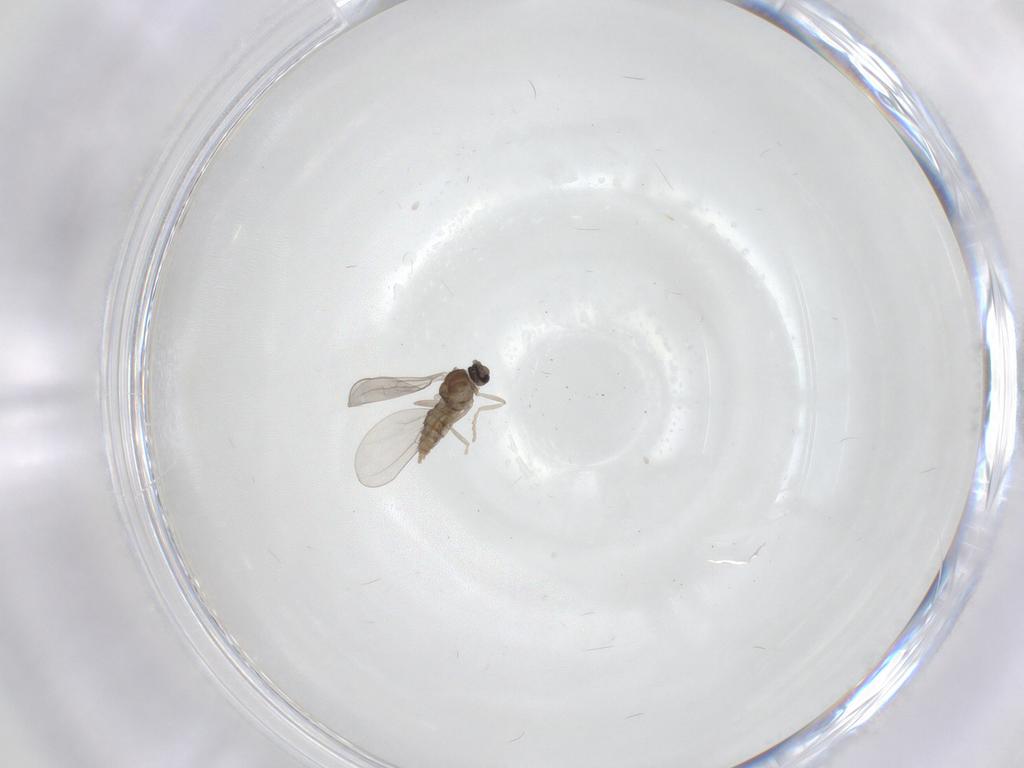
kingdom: Animalia
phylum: Arthropoda
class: Insecta
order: Diptera
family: Cecidomyiidae
